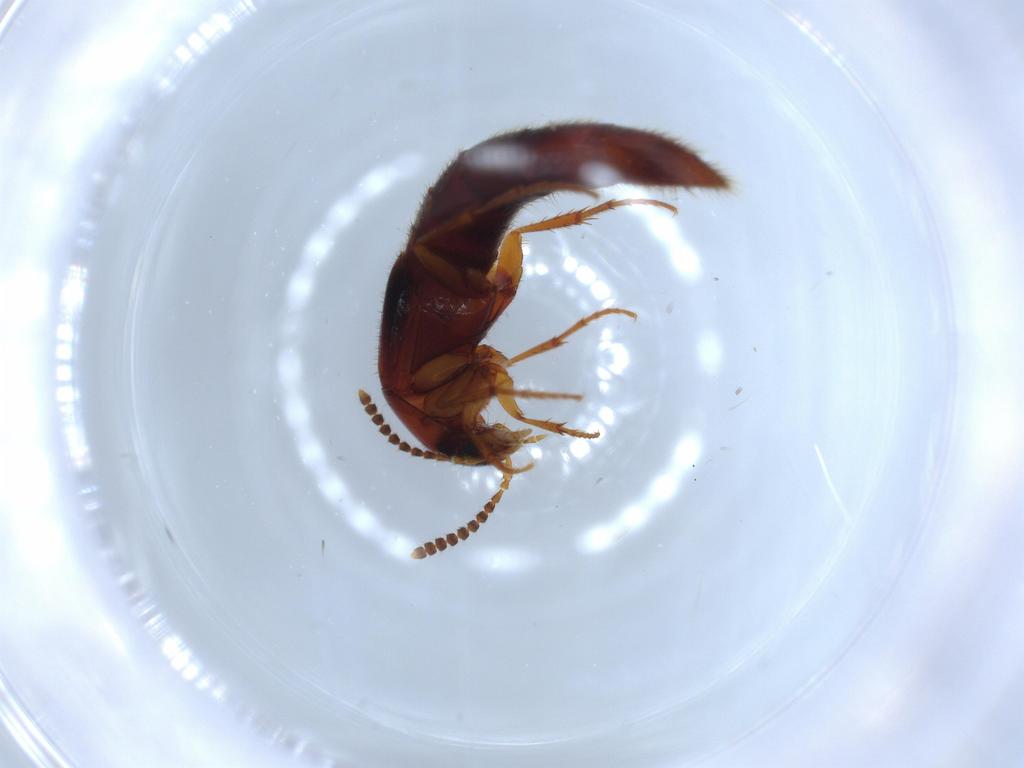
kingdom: Animalia
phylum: Arthropoda
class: Insecta
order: Coleoptera
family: Staphylinidae
